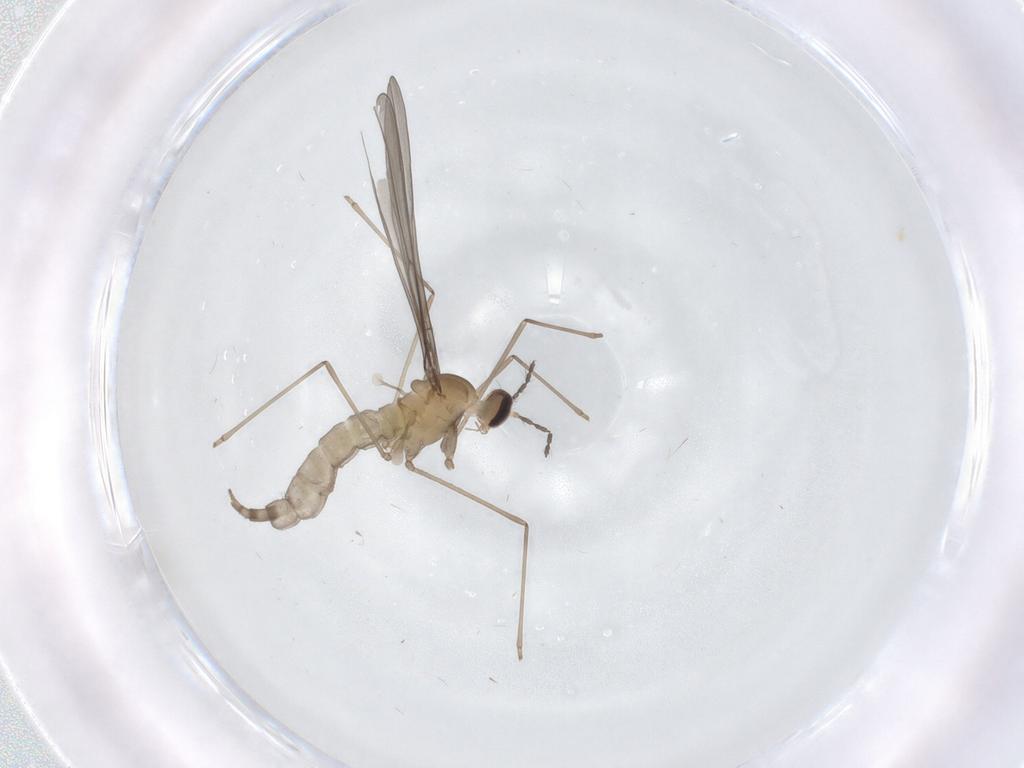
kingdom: Animalia
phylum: Arthropoda
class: Insecta
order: Diptera
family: Cecidomyiidae
